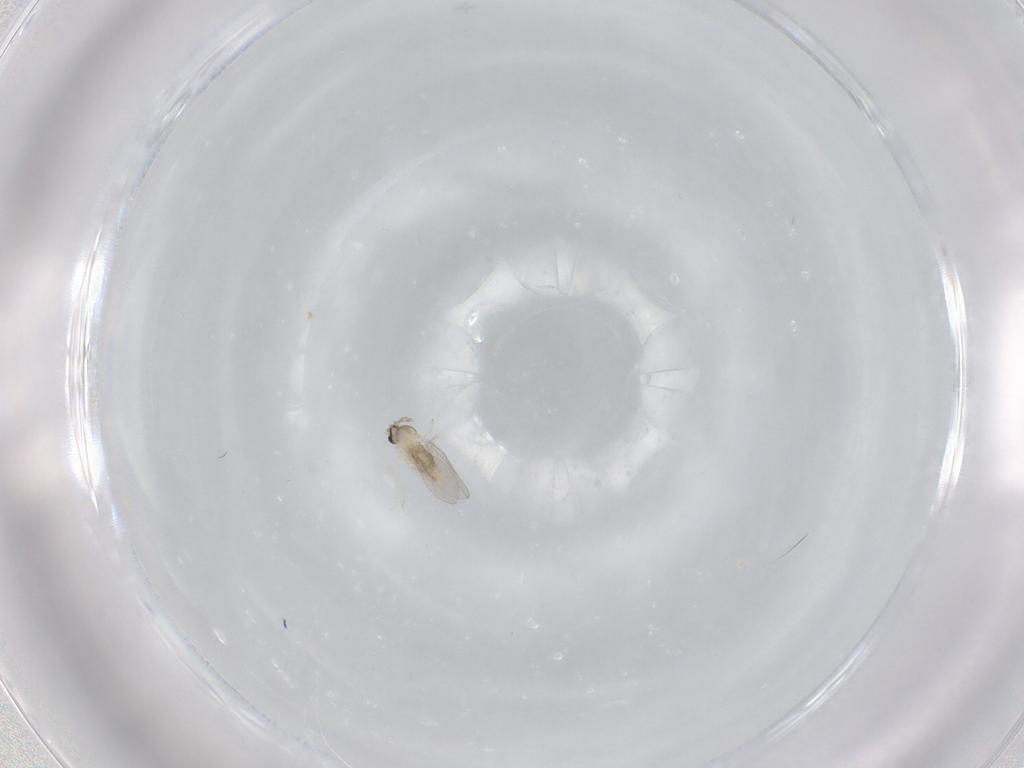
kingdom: Animalia
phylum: Arthropoda
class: Insecta
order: Diptera
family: Cecidomyiidae
